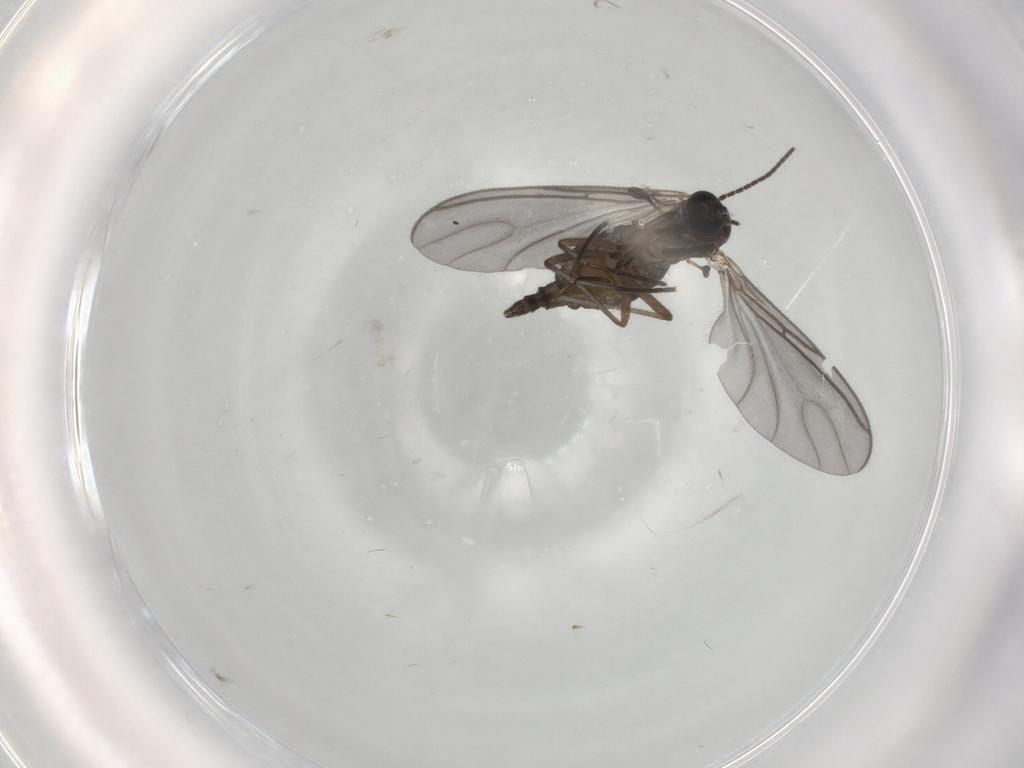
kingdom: Animalia
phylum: Arthropoda
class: Insecta
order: Diptera
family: Sciaridae
